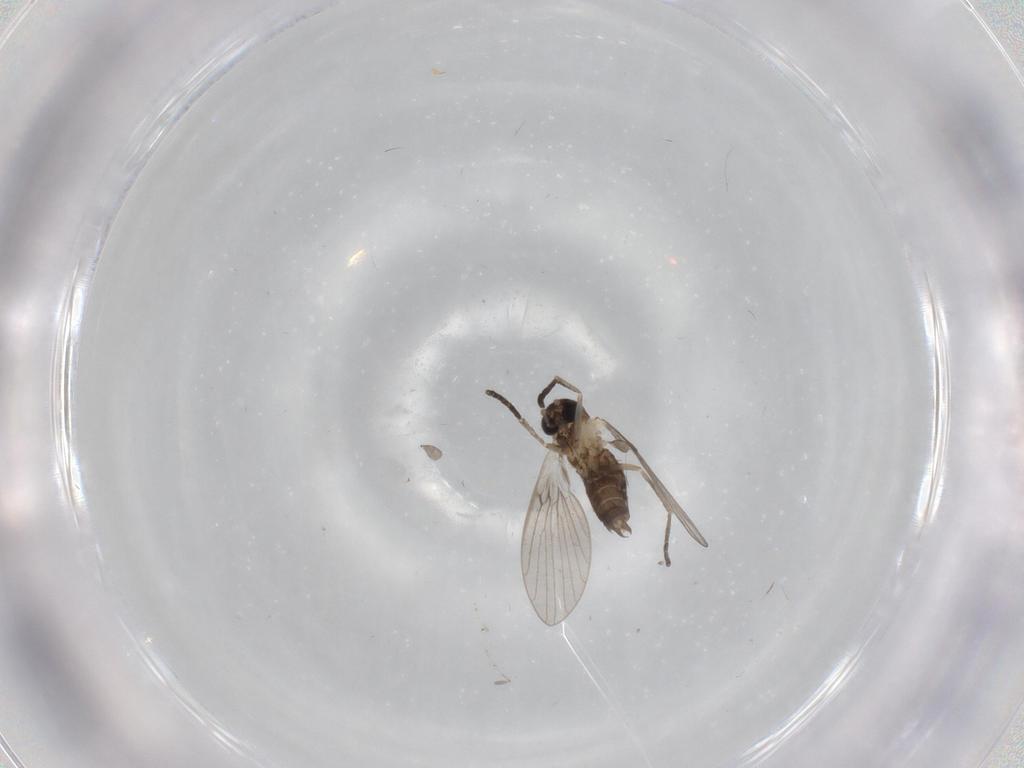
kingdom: Animalia
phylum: Arthropoda
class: Insecta
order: Diptera
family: Psychodidae
